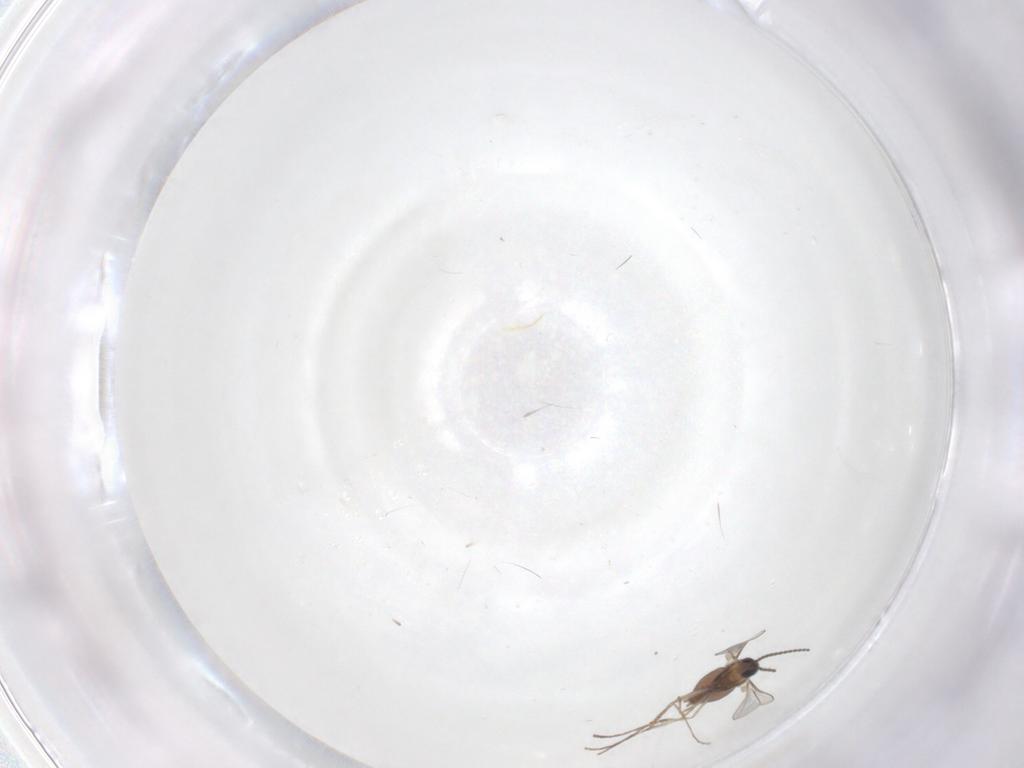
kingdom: Animalia
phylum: Arthropoda
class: Insecta
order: Diptera
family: Cecidomyiidae
